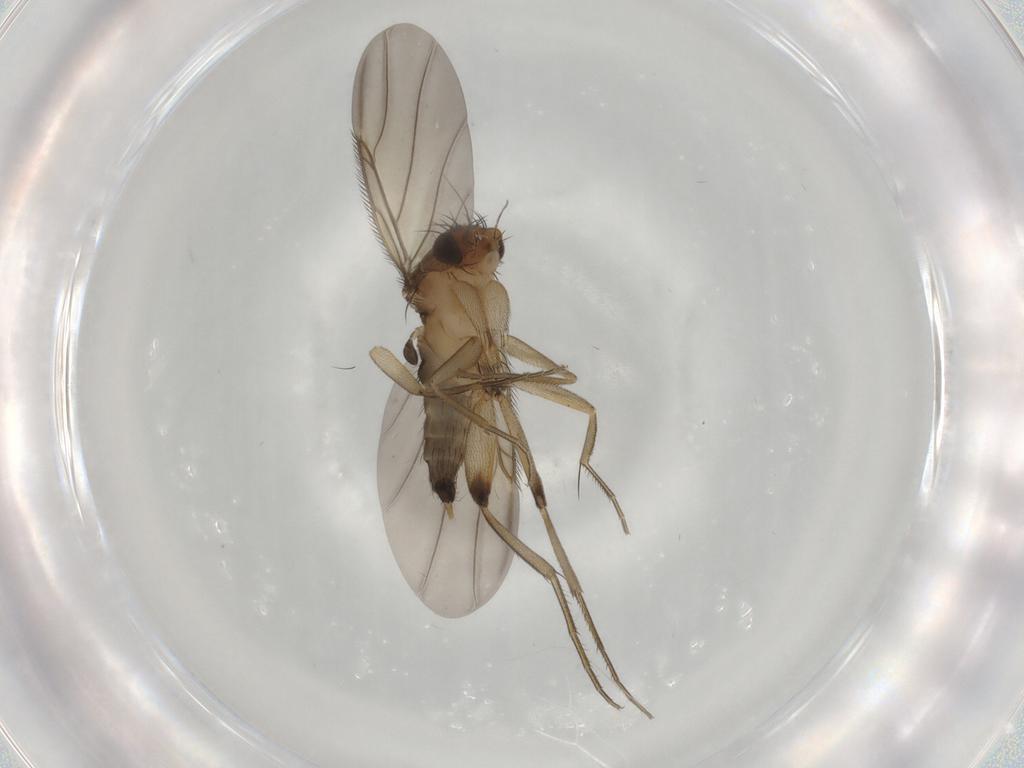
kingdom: Animalia
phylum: Arthropoda
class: Insecta
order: Diptera
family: Phoridae
